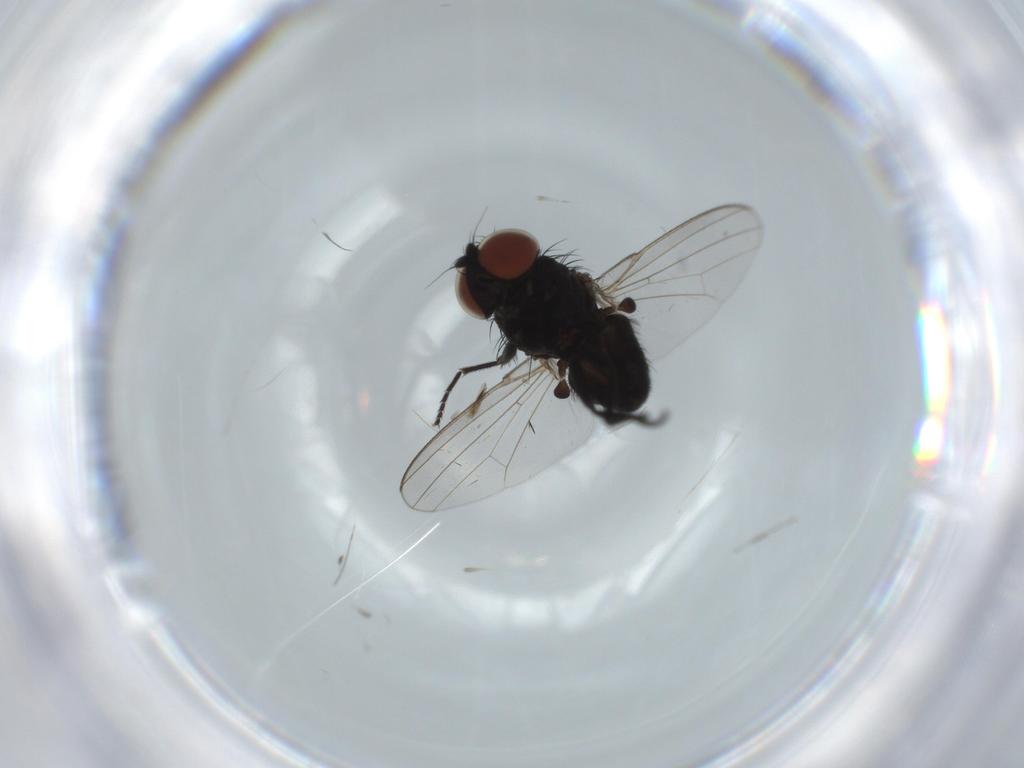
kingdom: Animalia
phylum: Arthropoda
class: Insecta
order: Diptera
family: Milichiidae
